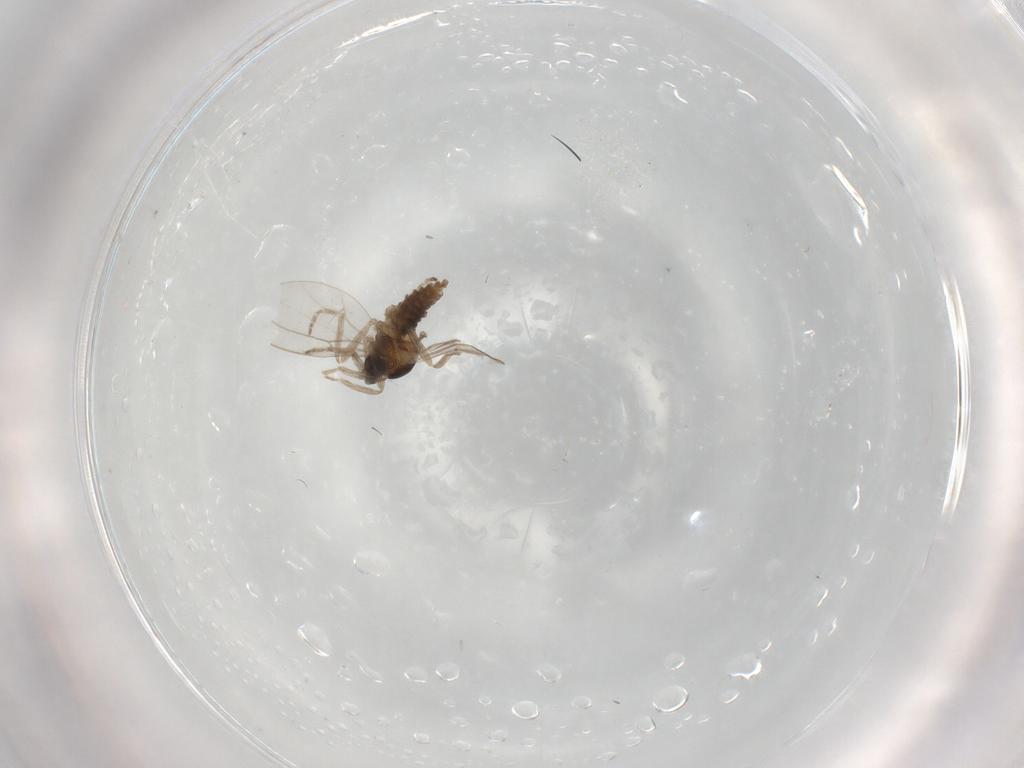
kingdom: Animalia
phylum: Arthropoda
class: Insecta
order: Diptera
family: Cecidomyiidae
